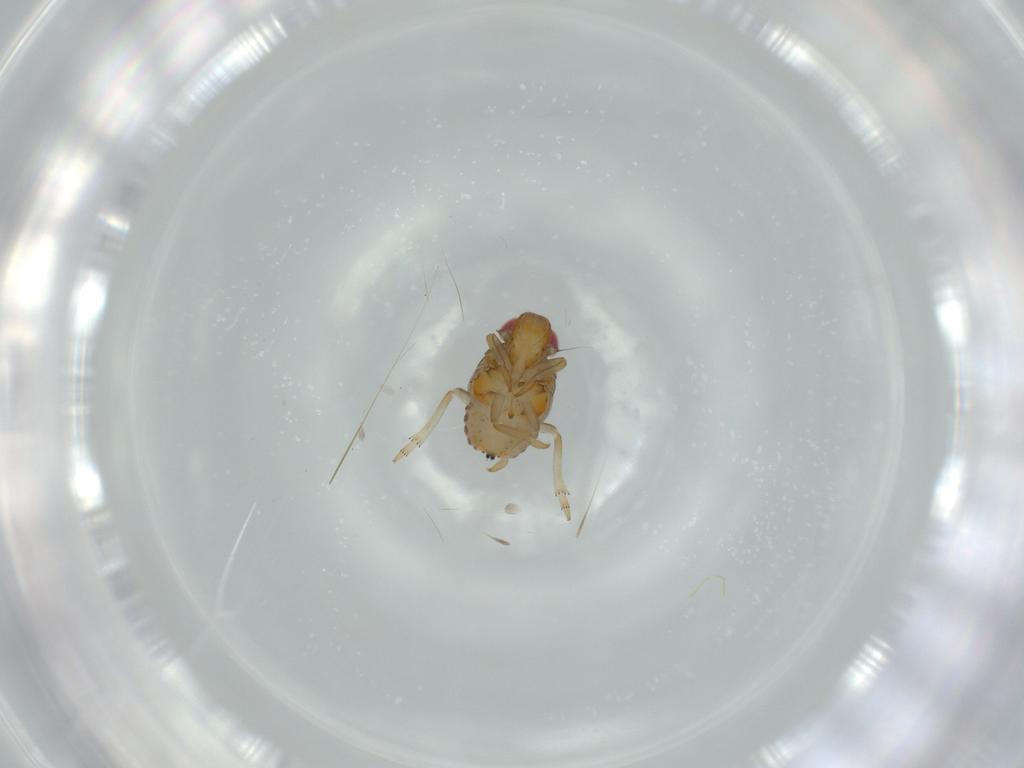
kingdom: Animalia
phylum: Arthropoda
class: Insecta
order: Hemiptera
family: Issidae
